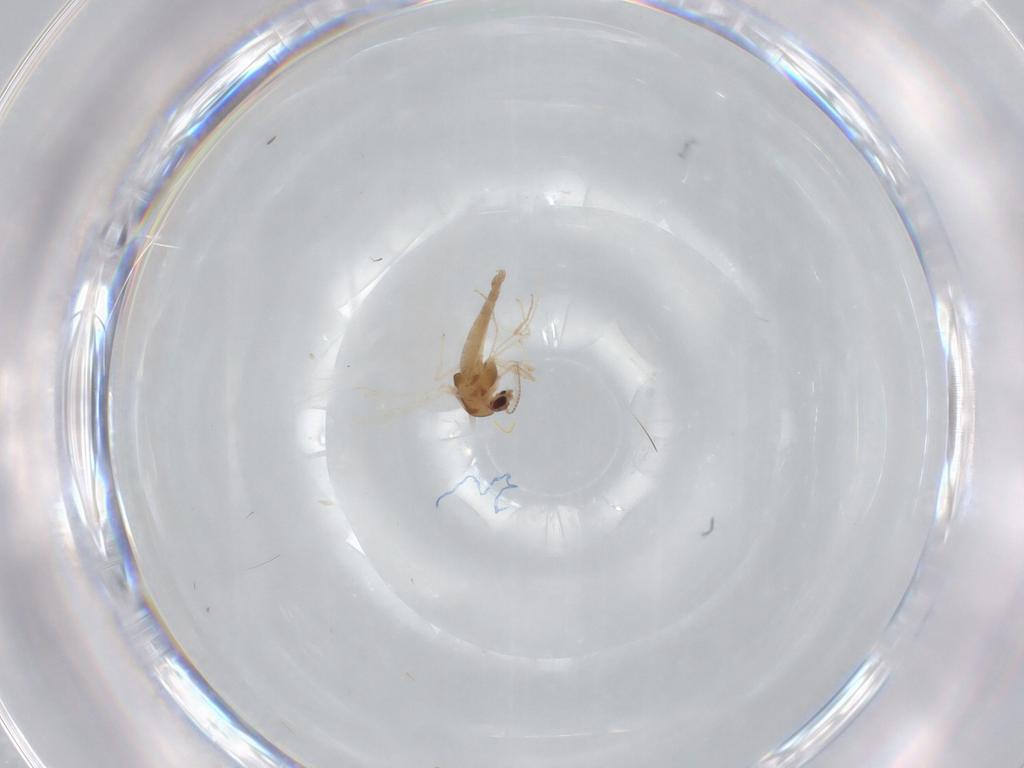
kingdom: Animalia
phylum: Arthropoda
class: Insecta
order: Diptera
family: Chironomidae
